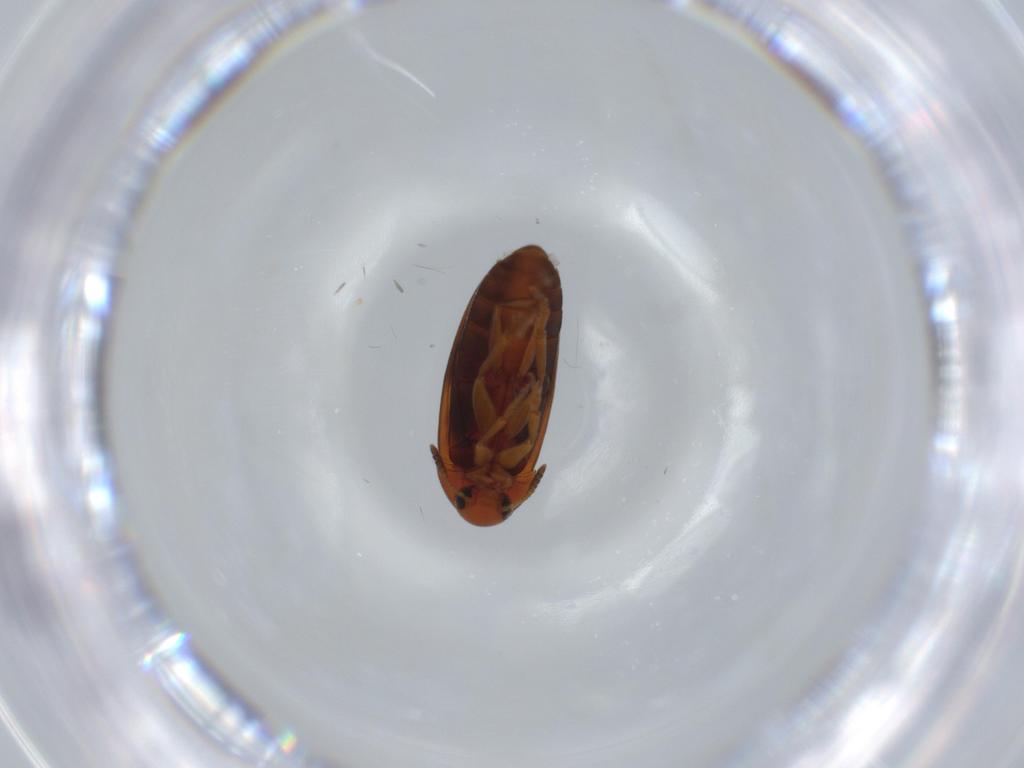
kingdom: Animalia
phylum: Arthropoda
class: Insecta
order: Coleoptera
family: Scraptiidae
